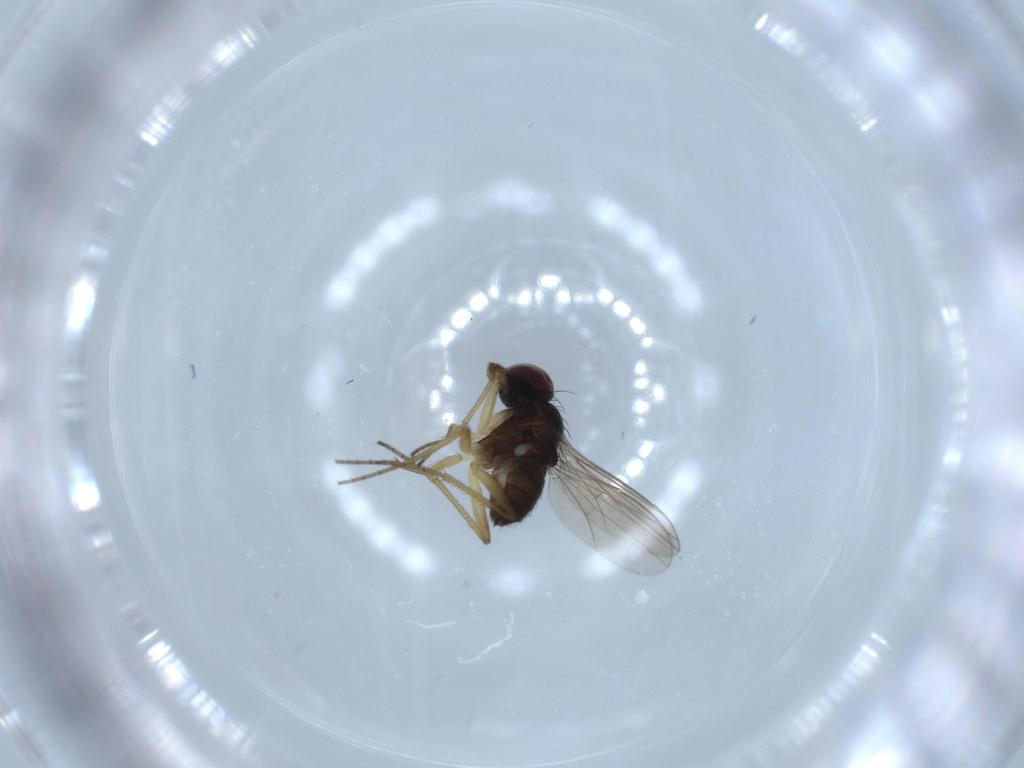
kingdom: Animalia
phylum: Arthropoda
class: Insecta
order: Diptera
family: Dolichopodidae
